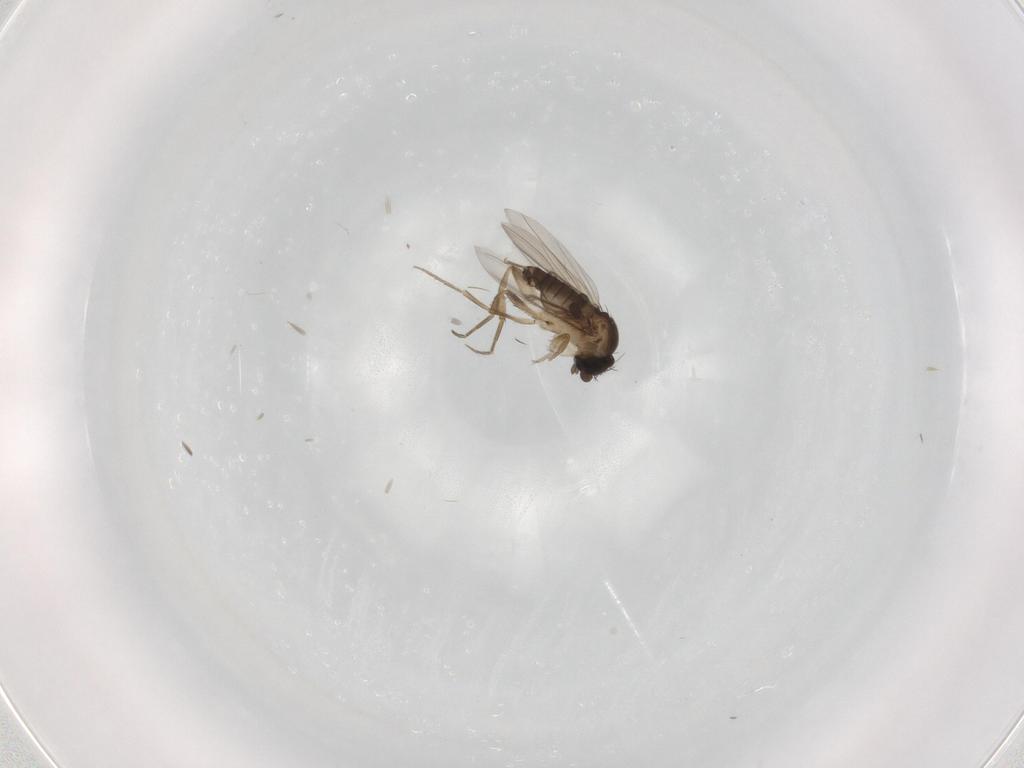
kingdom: Animalia
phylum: Arthropoda
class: Insecta
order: Diptera
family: Phoridae
